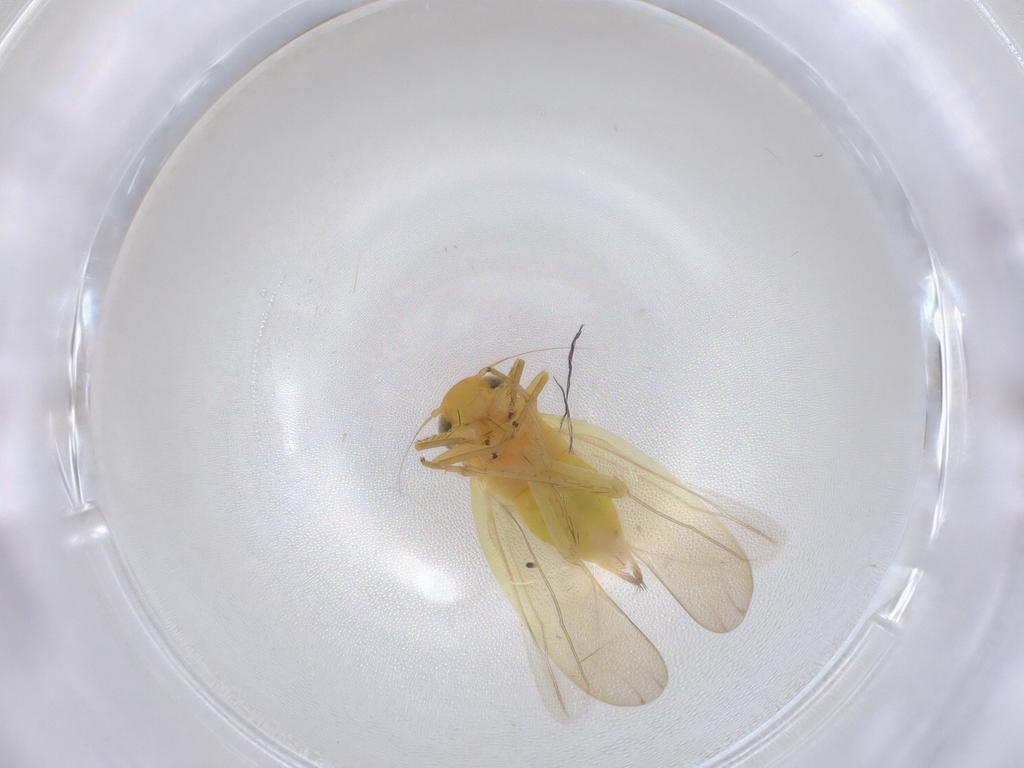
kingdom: Animalia
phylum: Arthropoda
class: Insecta
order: Hemiptera
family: Cicadellidae
